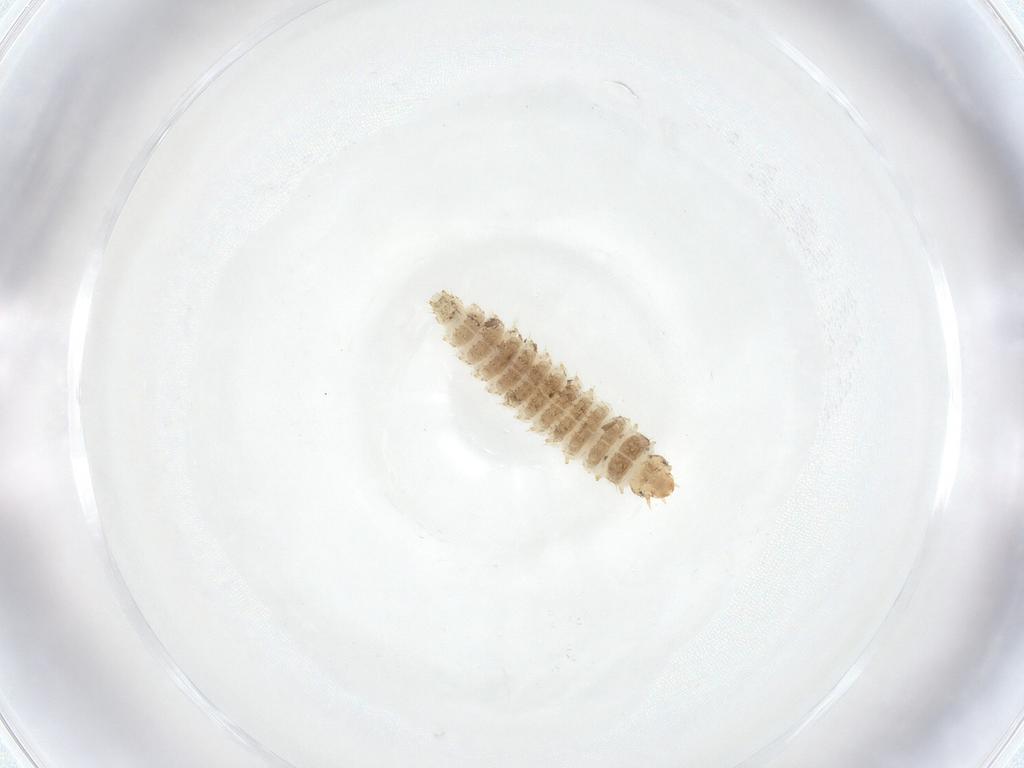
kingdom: Animalia
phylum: Arthropoda
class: Insecta
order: Coleoptera
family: Nitidulidae
